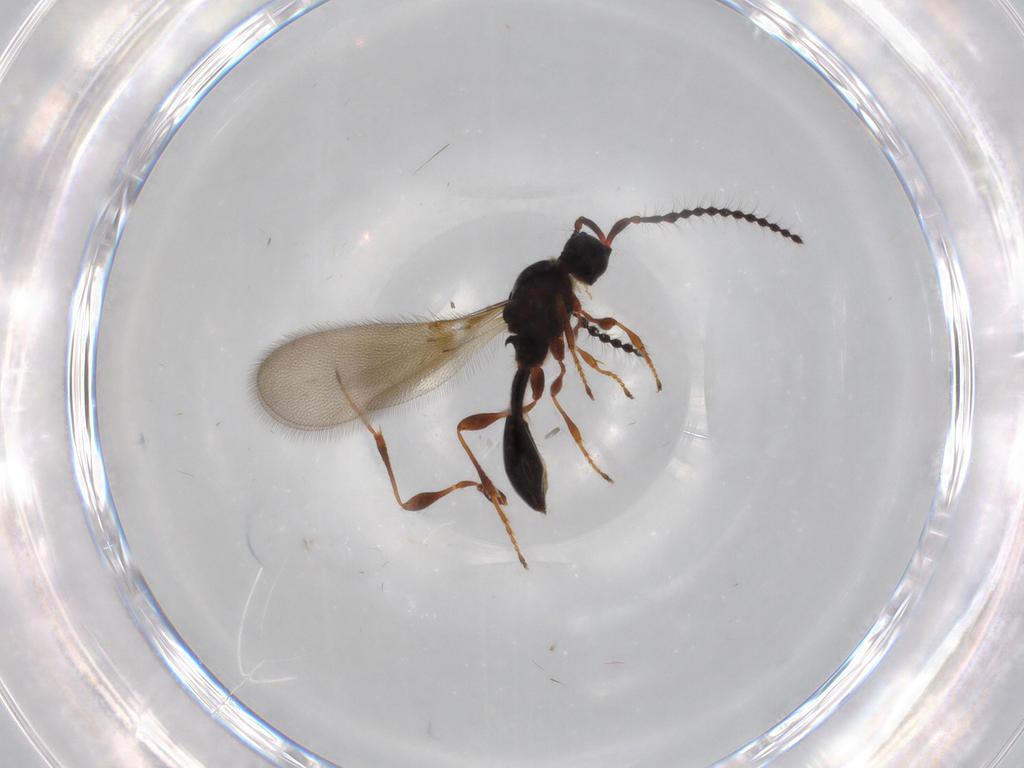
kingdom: Animalia
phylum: Arthropoda
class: Insecta
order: Hymenoptera
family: Diapriidae
